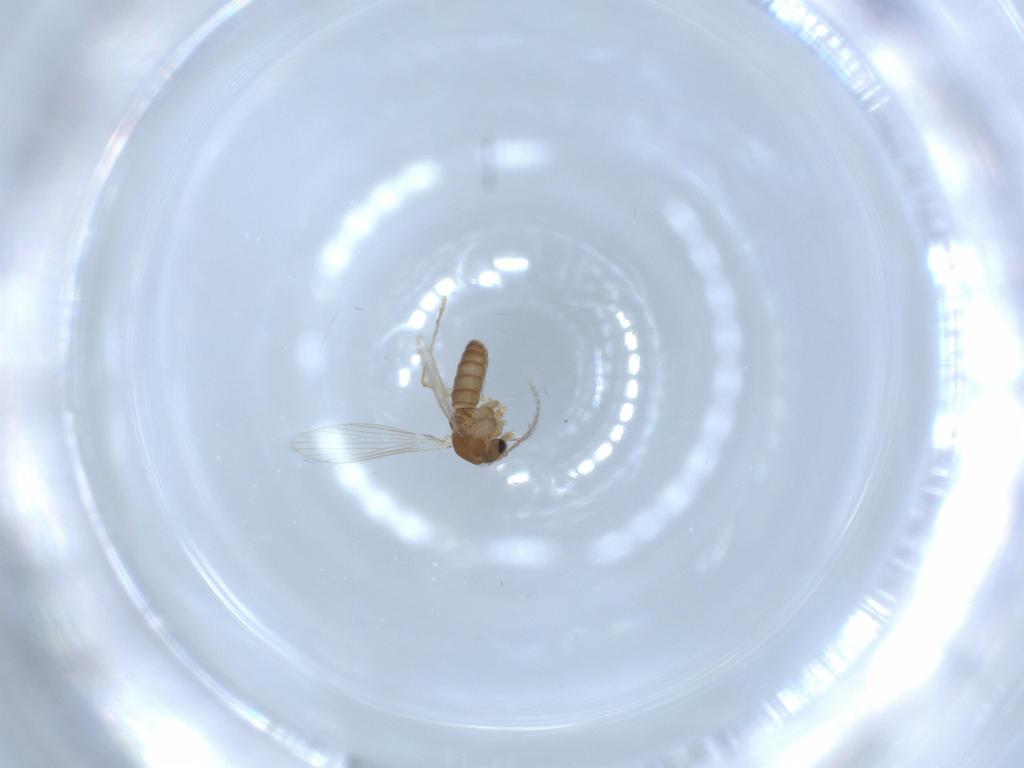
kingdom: Animalia
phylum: Arthropoda
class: Insecta
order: Diptera
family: Psychodidae
